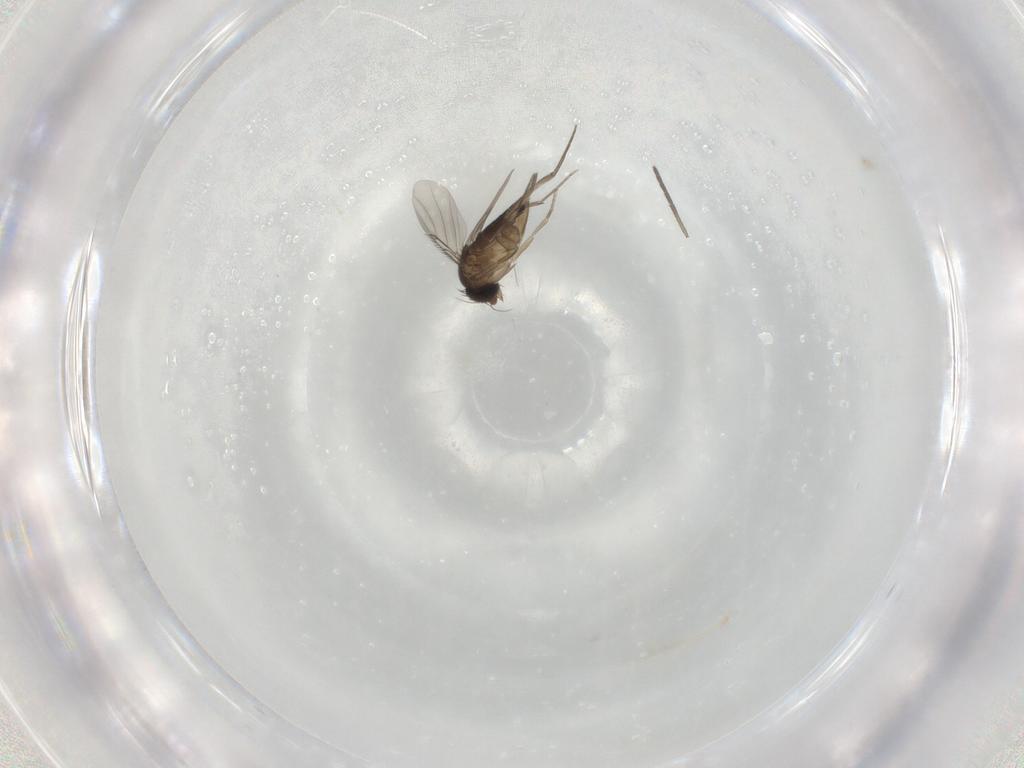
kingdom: Animalia
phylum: Arthropoda
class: Insecta
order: Diptera
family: Phoridae
